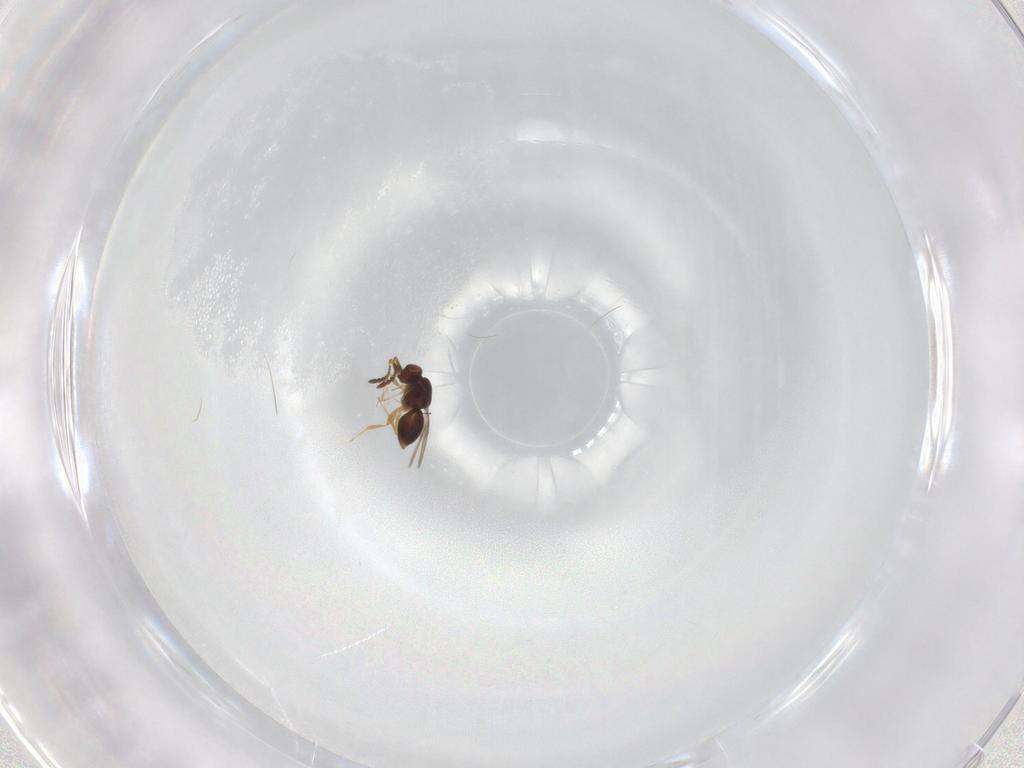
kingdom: Animalia
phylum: Arthropoda
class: Insecta
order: Hymenoptera
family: Ceraphronidae
